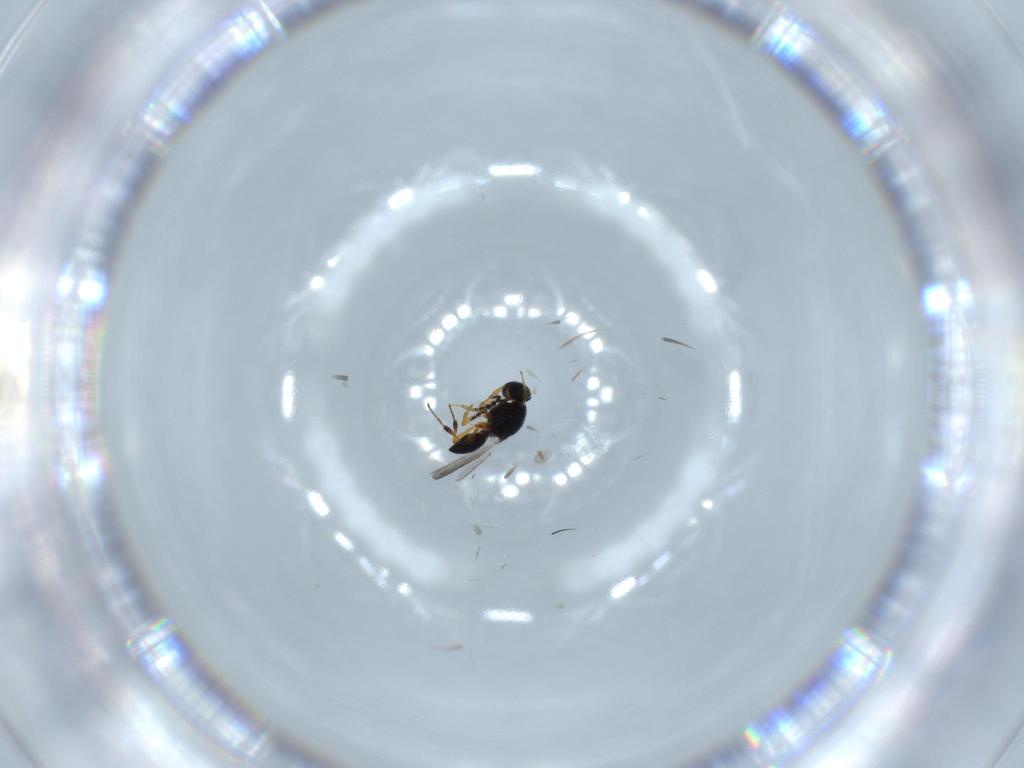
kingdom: Animalia
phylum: Arthropoda
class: Insecta
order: Hymenoptera
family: Platygastridae
